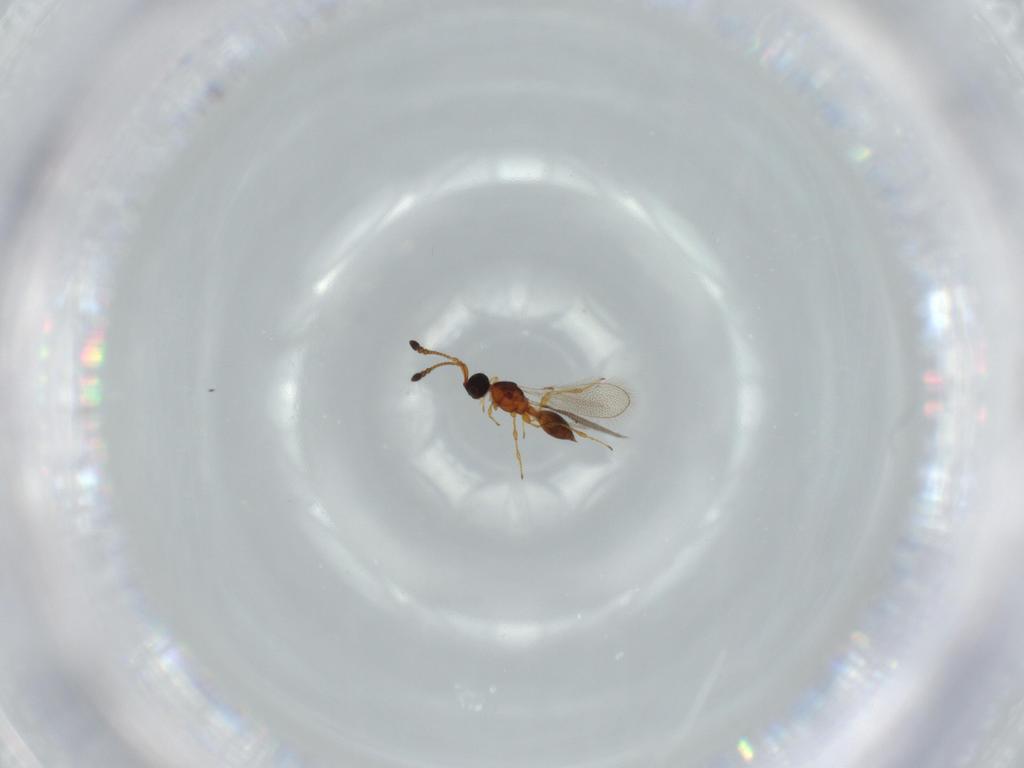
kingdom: Animalia
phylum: Arthropoda
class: Insecta
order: Hymenoptera
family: Diapriidae
